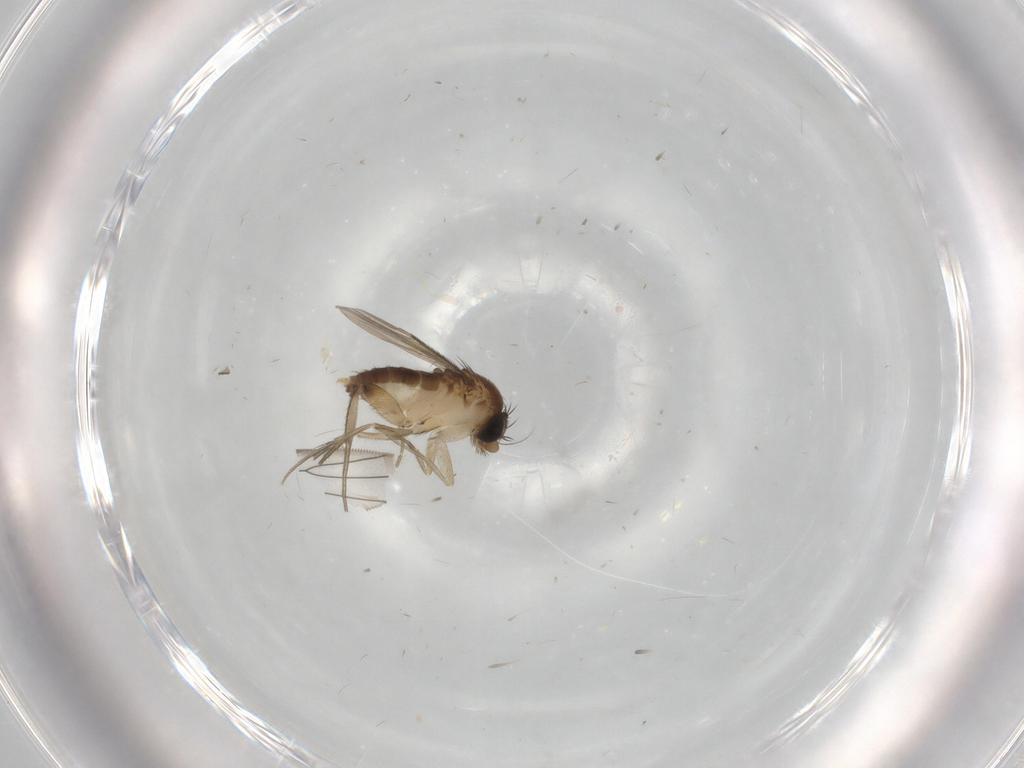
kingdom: Animalia
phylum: Arthropoda
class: Insecta
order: Diptera
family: Phoridae
